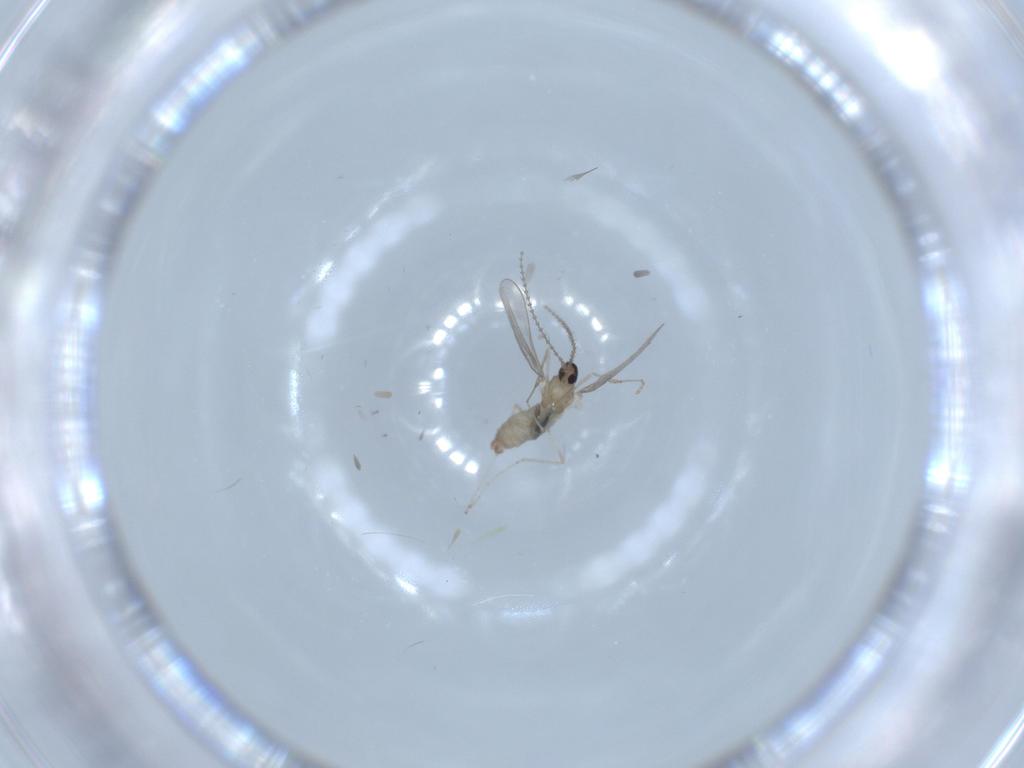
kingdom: Animalia
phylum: Arthropoda
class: Insecta
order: Diptera
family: Cecidomyiidae
